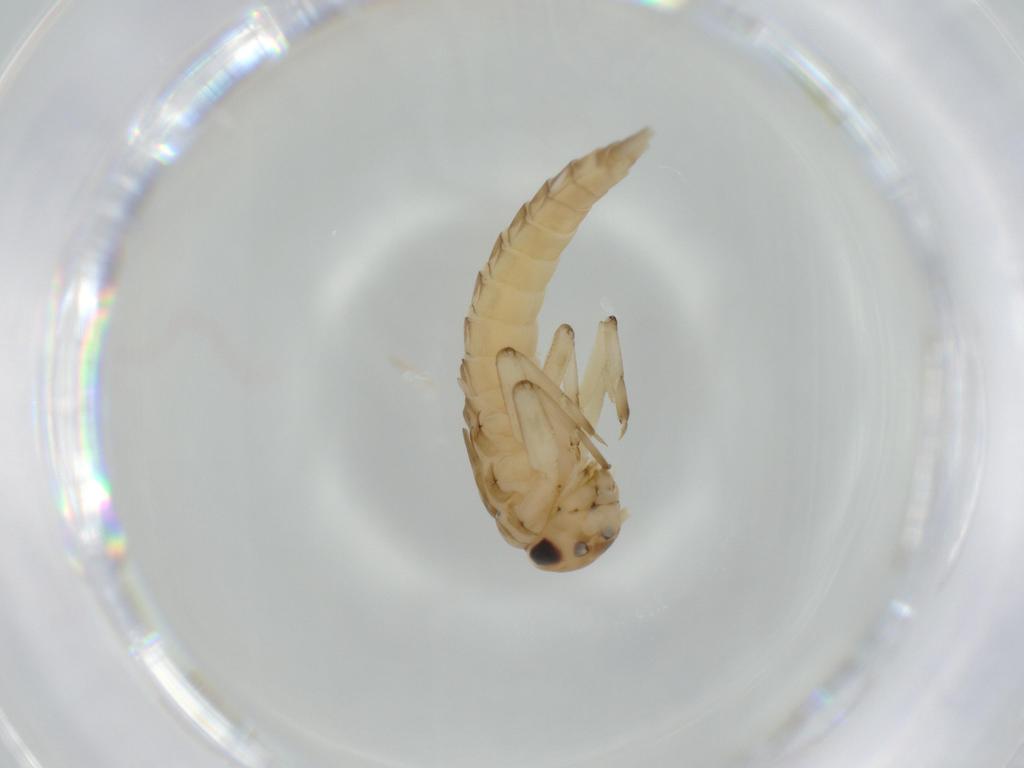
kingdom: Animalia
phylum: Arthropoda
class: Insecta
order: Ephemeroptera
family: Baetidae
